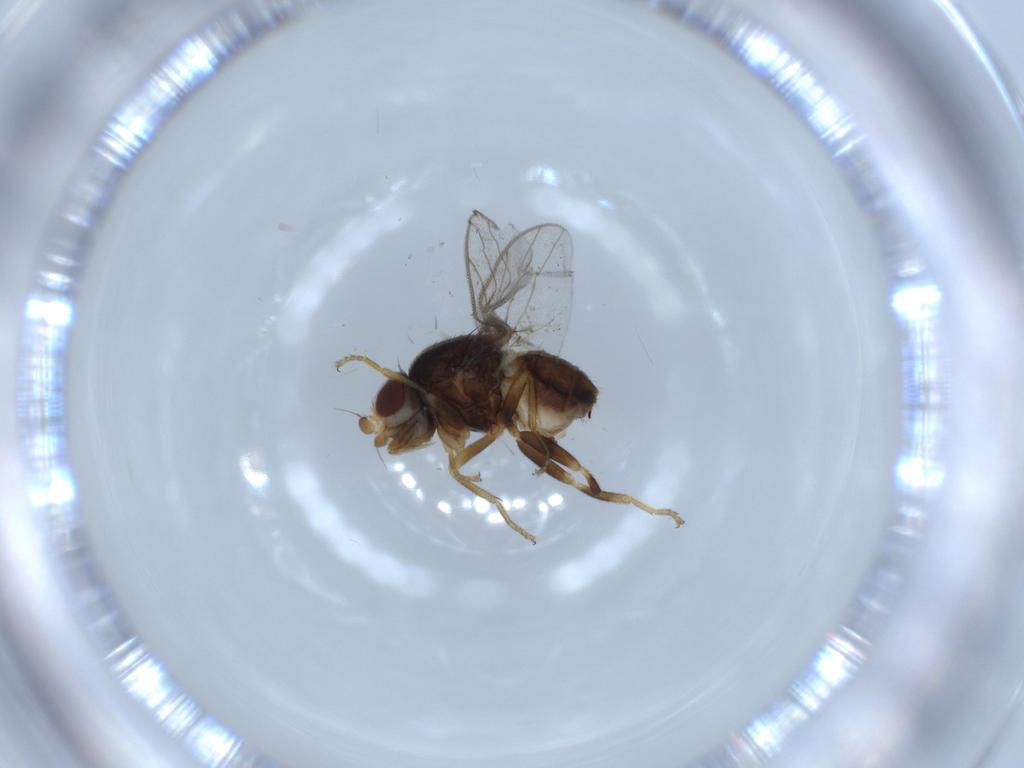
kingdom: Animalia
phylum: Arthropoda
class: Insecta
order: Diptera
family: Chloropidae
